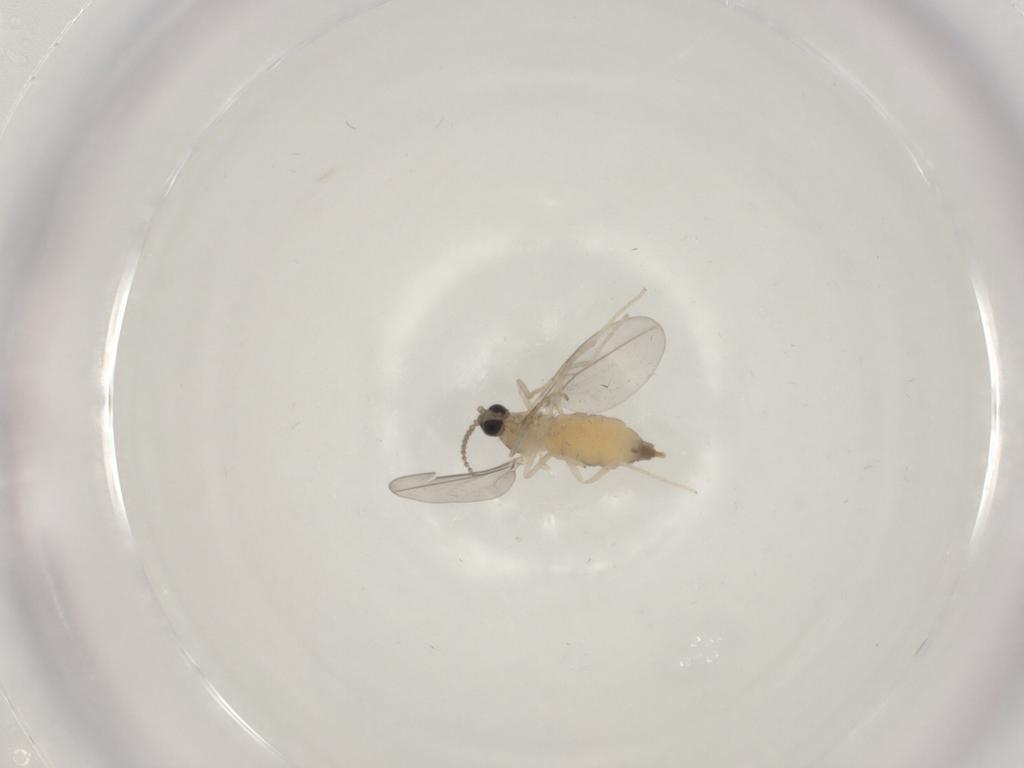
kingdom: Animalia
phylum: Arthropoda
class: Insecta
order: Diptera
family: Cecidomyiidae
